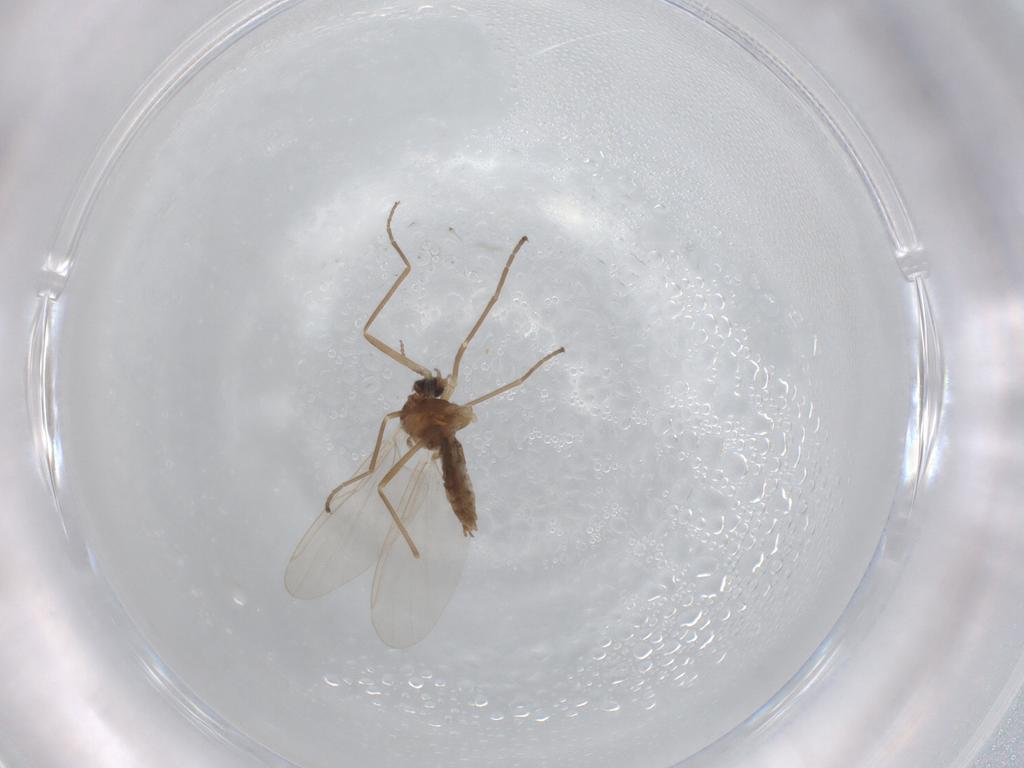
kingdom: Animalia
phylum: Arthropoda
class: Insecta
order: Diptera
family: Cecidomyiidae
